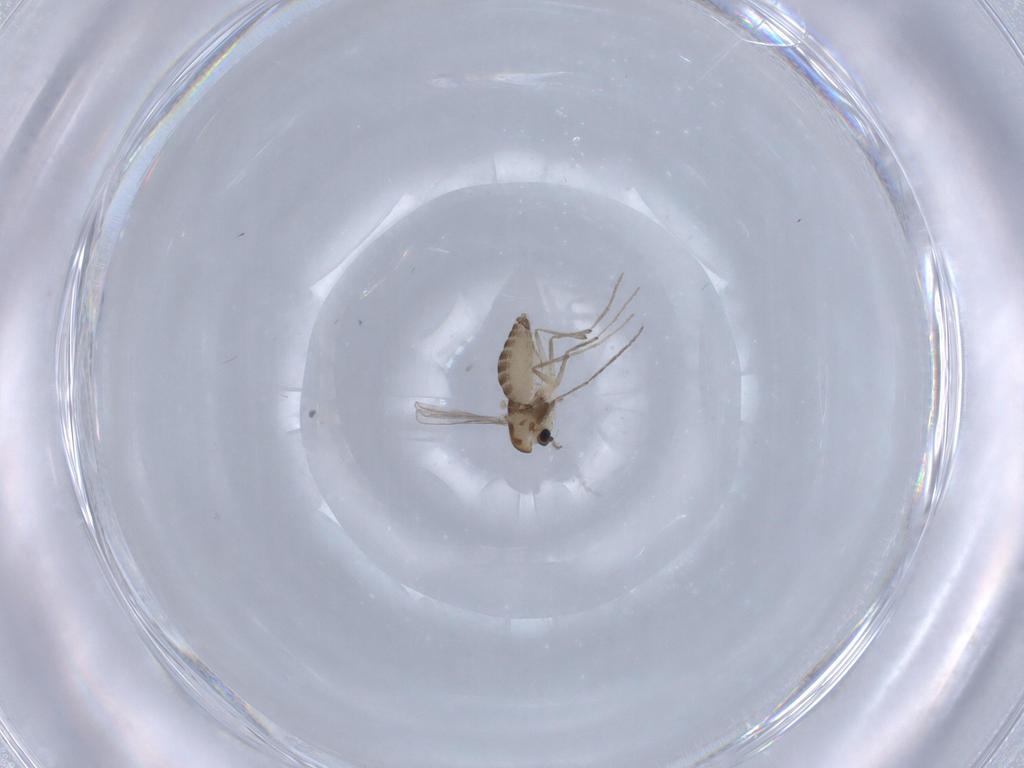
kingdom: Animalia
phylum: Arthropoda
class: Insecta
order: Diptera
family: Chironomidae
